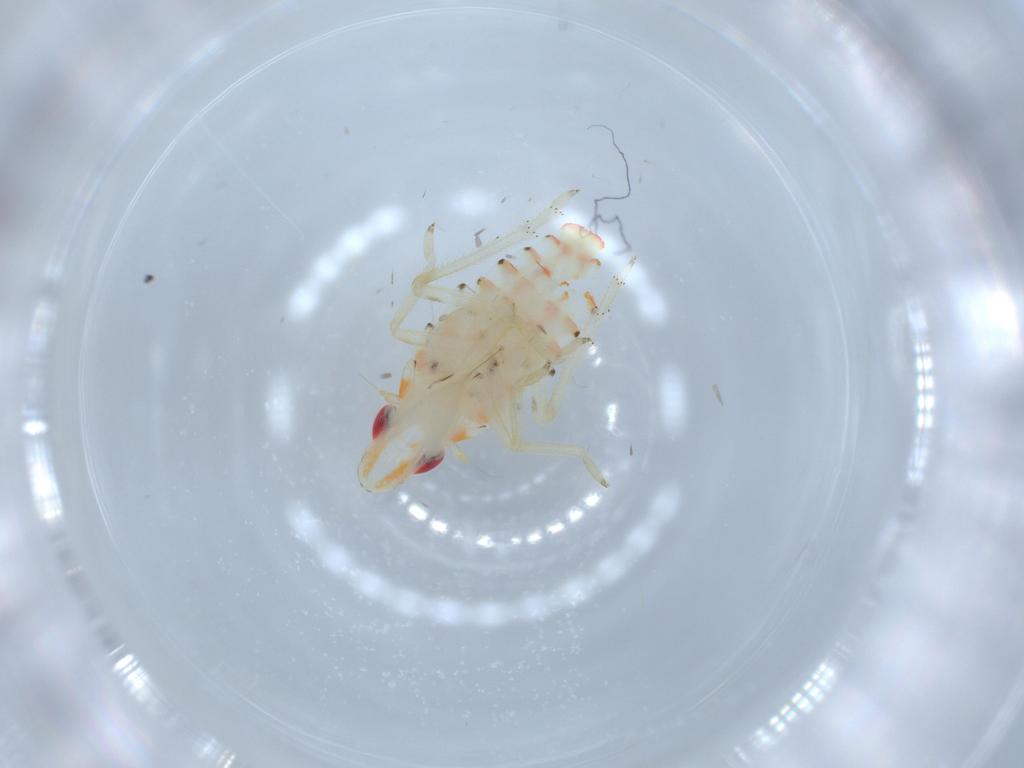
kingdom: Animalia
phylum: Arthropoda
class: Insecta
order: Hemiptera
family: Tropiduchidae
